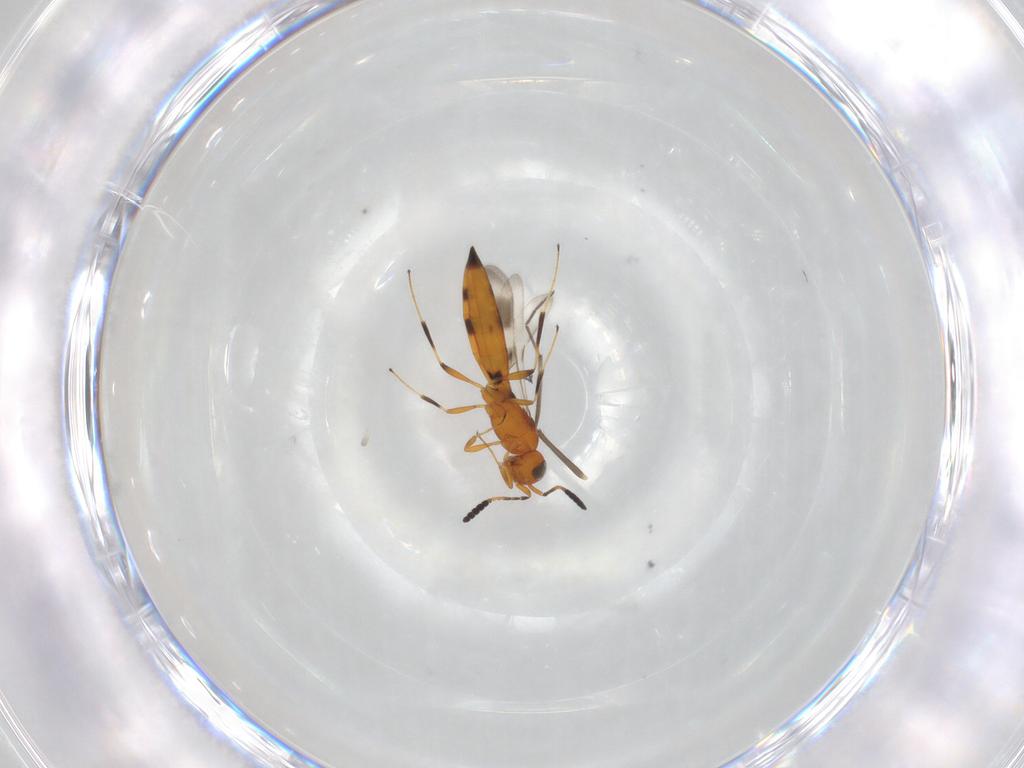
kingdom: Animalia
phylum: Arthropoda
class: Insecta
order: Hymenoptera
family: Scelionidae
